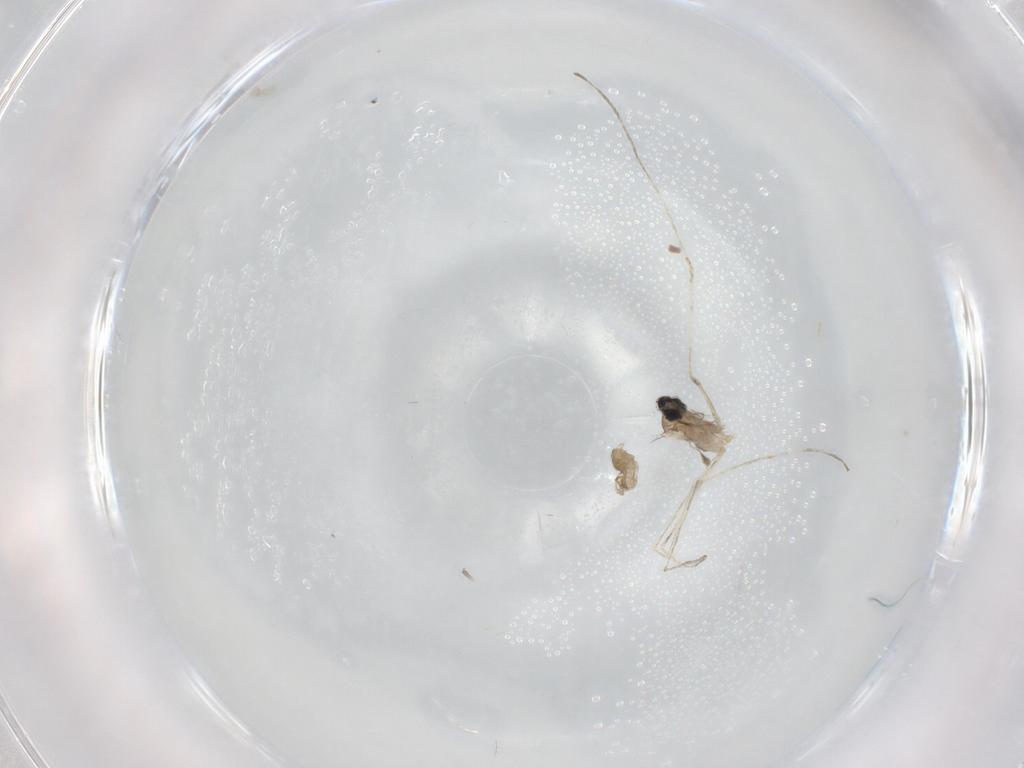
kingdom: Animalia
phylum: Arthropoda
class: Insecta
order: Diptera
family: Cecidomyiidae
